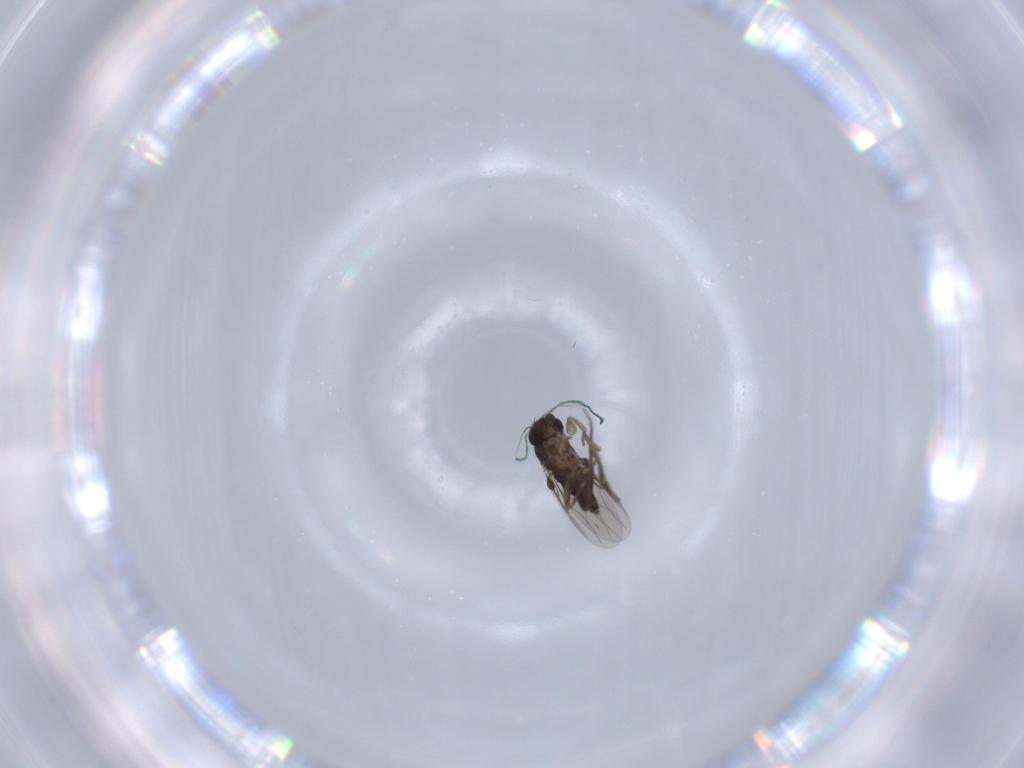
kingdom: Animalia
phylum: Arthropoda
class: Insecta
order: Diptera
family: Phoridae
